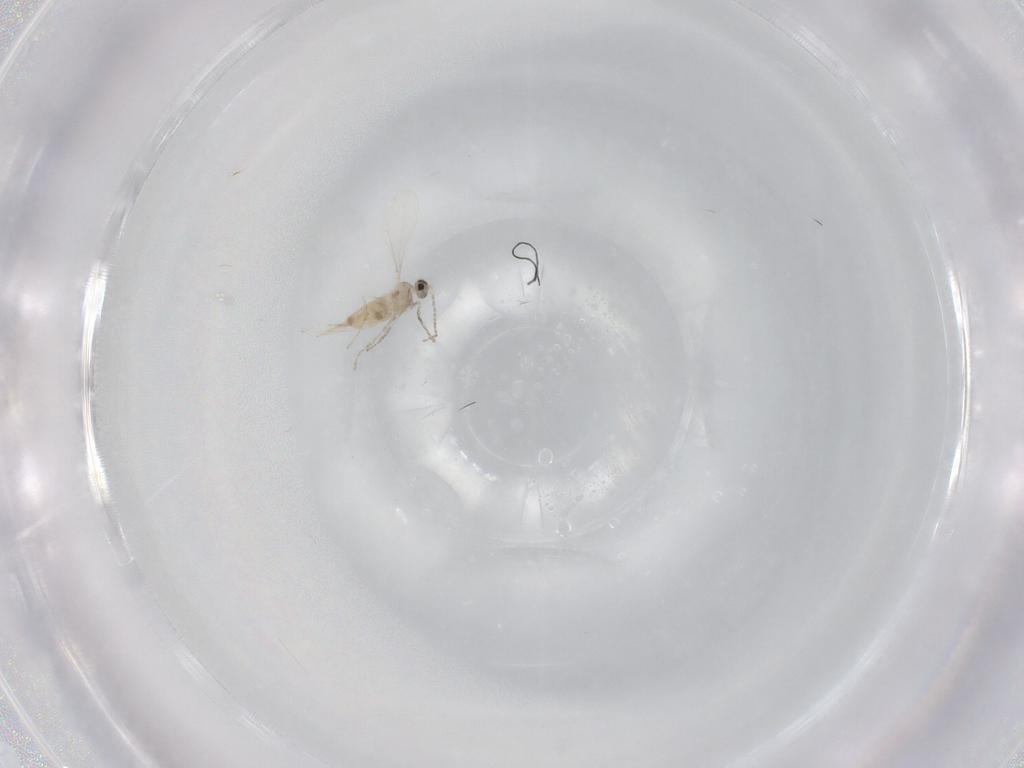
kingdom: Animalia
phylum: Arthropoda
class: Insecta
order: Diptera
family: Cecidomyiidae
